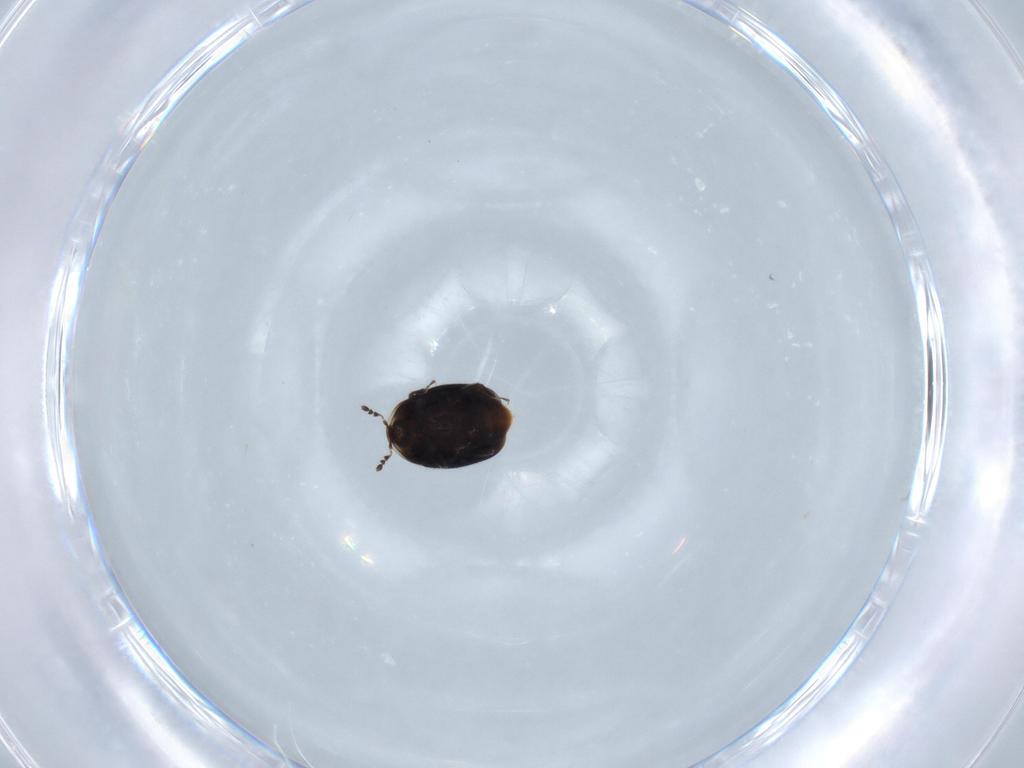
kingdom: Animalia
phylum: Arthropoda
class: Insecta
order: Coleoptera
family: Corylophidae
